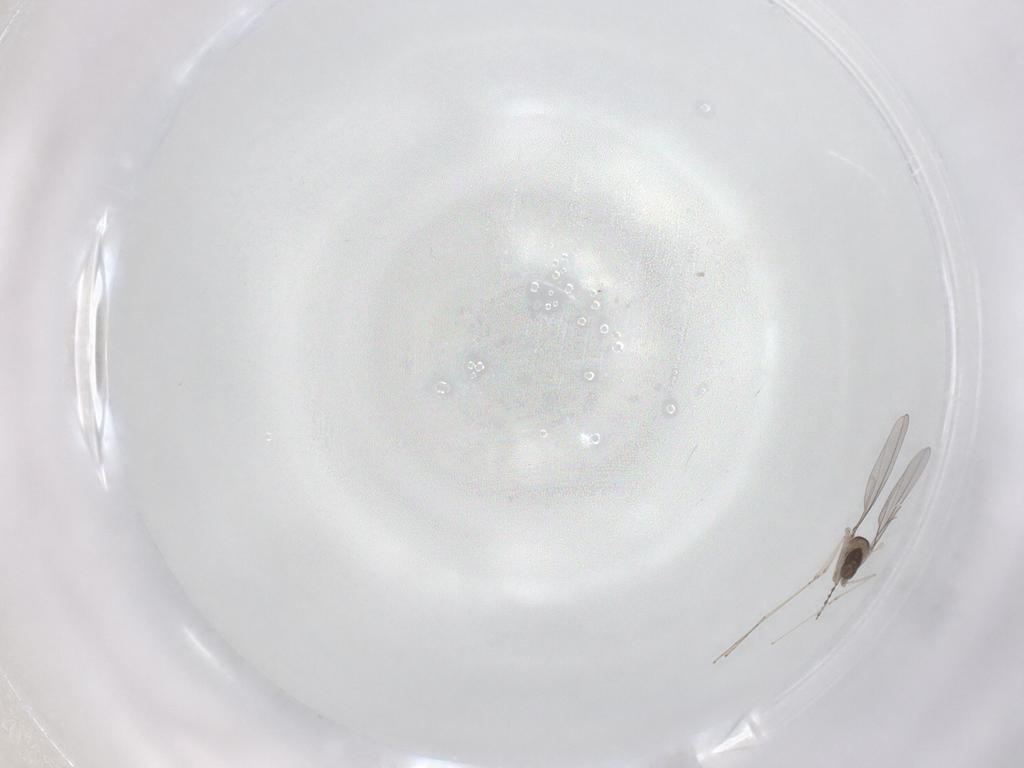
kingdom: Animalia
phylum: Arthropoda
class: Insecta
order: Diptera
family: Cecidomyiidae
